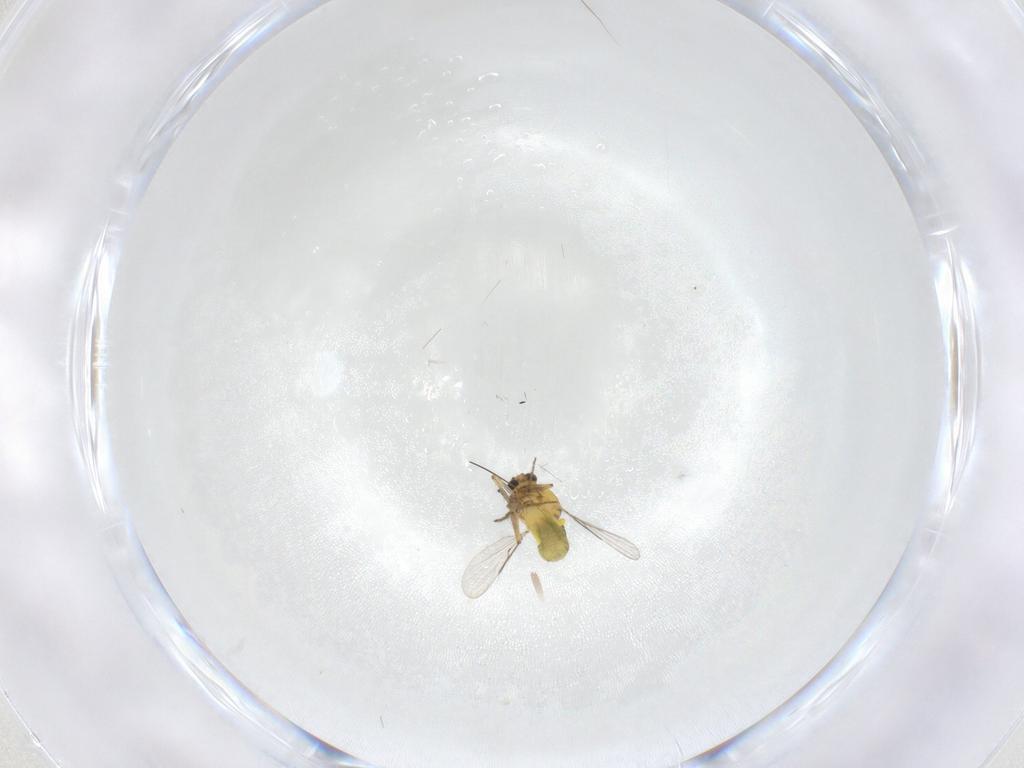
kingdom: Animalia
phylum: Arthropoda
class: Insecta
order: Diptera
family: Ceratopogonidae
